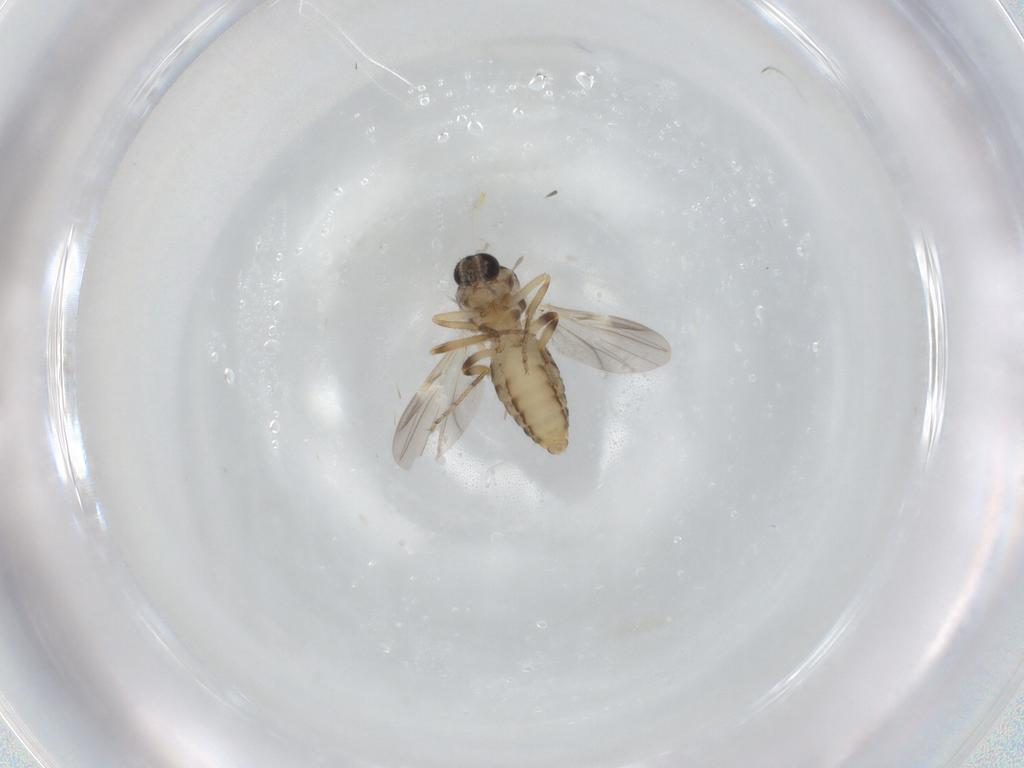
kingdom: Animalia
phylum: Arthropoda
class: Insecta
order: Diptera
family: Ceratopogonidae
